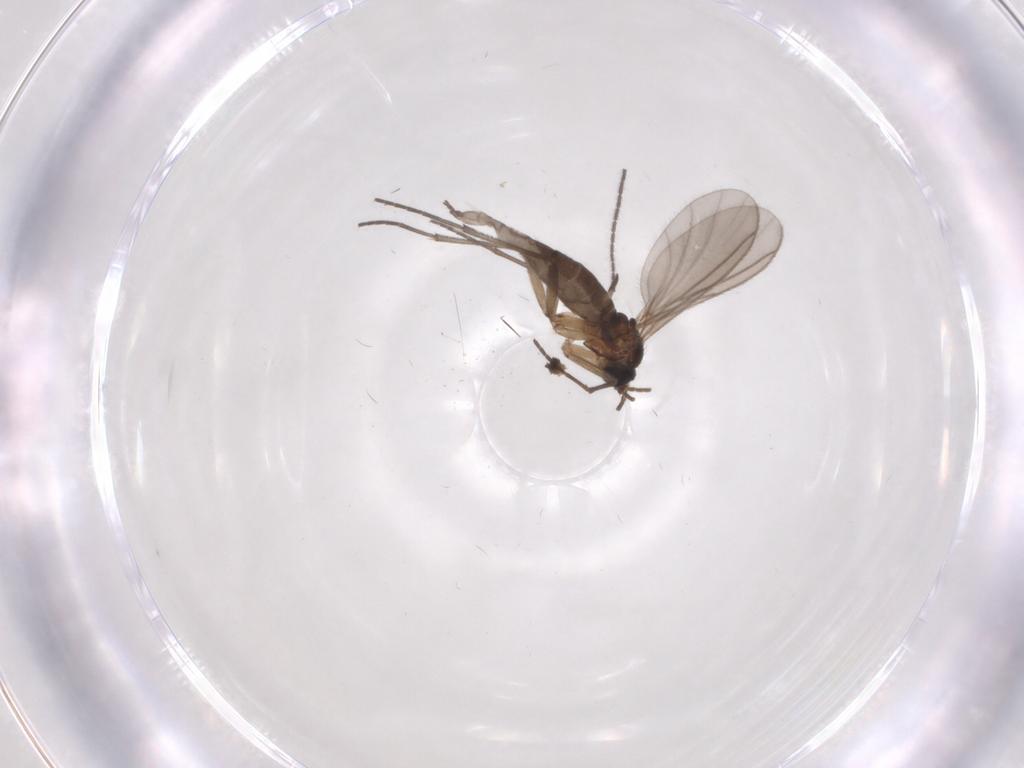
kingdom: Animalia
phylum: Arthropoda
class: Insecta
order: Diptera
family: Sciaridae
